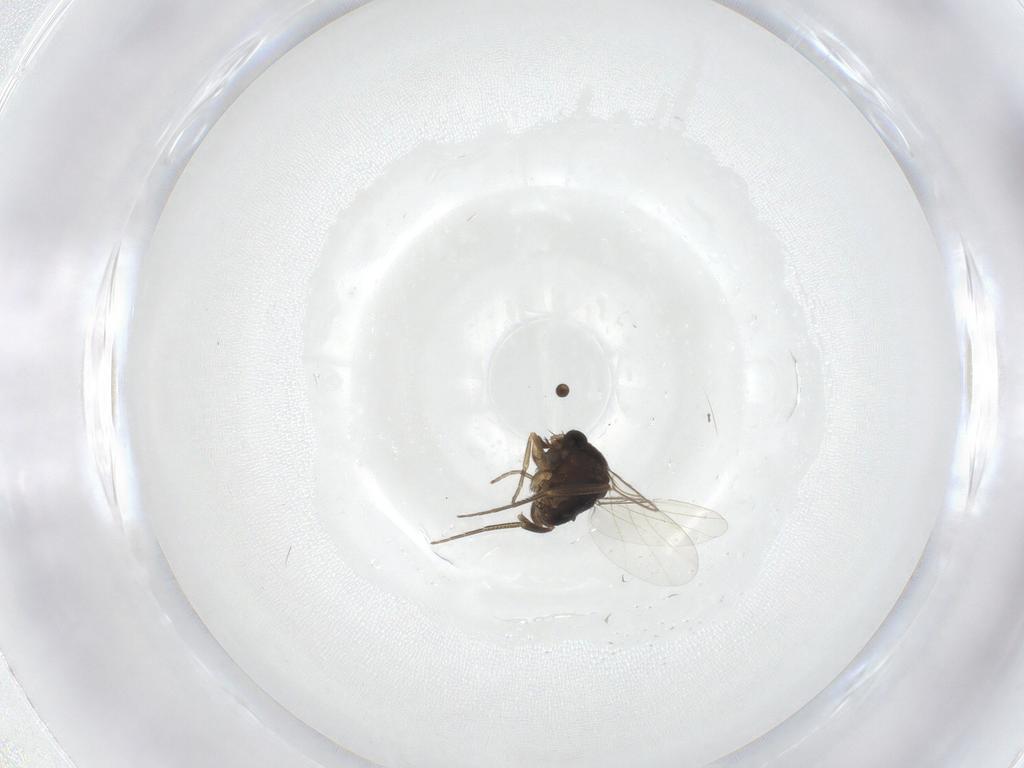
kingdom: Animalia
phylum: Arthropoda
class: Insecta
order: Diptera
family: Phoridae
